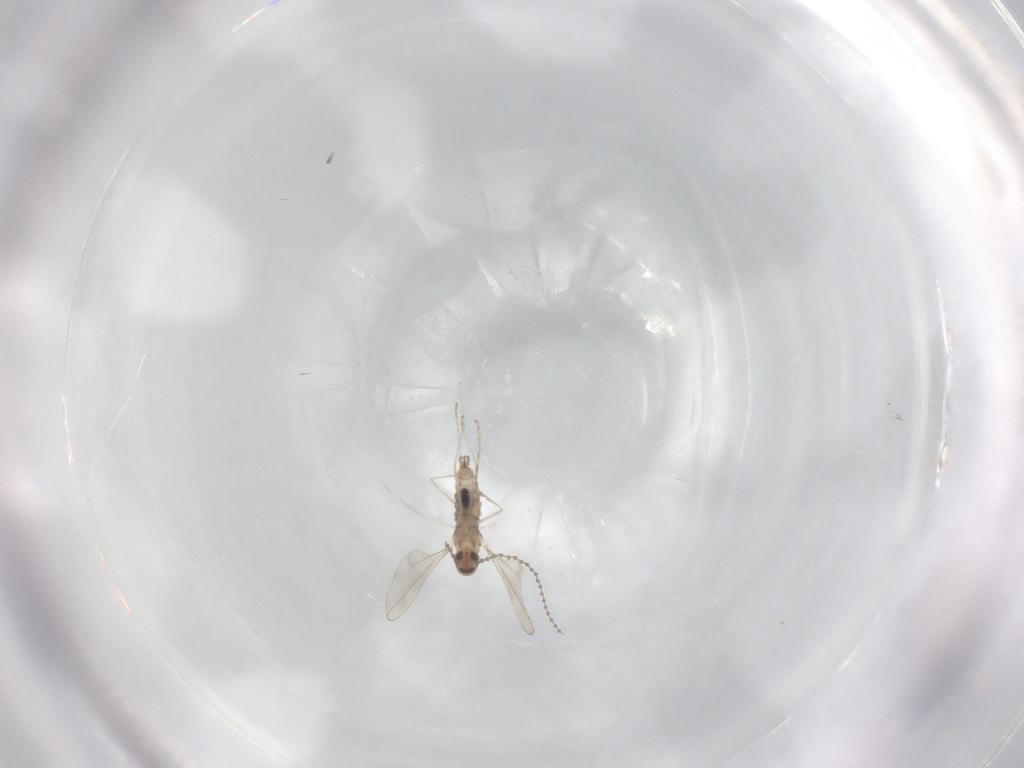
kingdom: Animalia
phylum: Arthropoda
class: Insecta
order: Diptera
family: Cecidomyiidae
